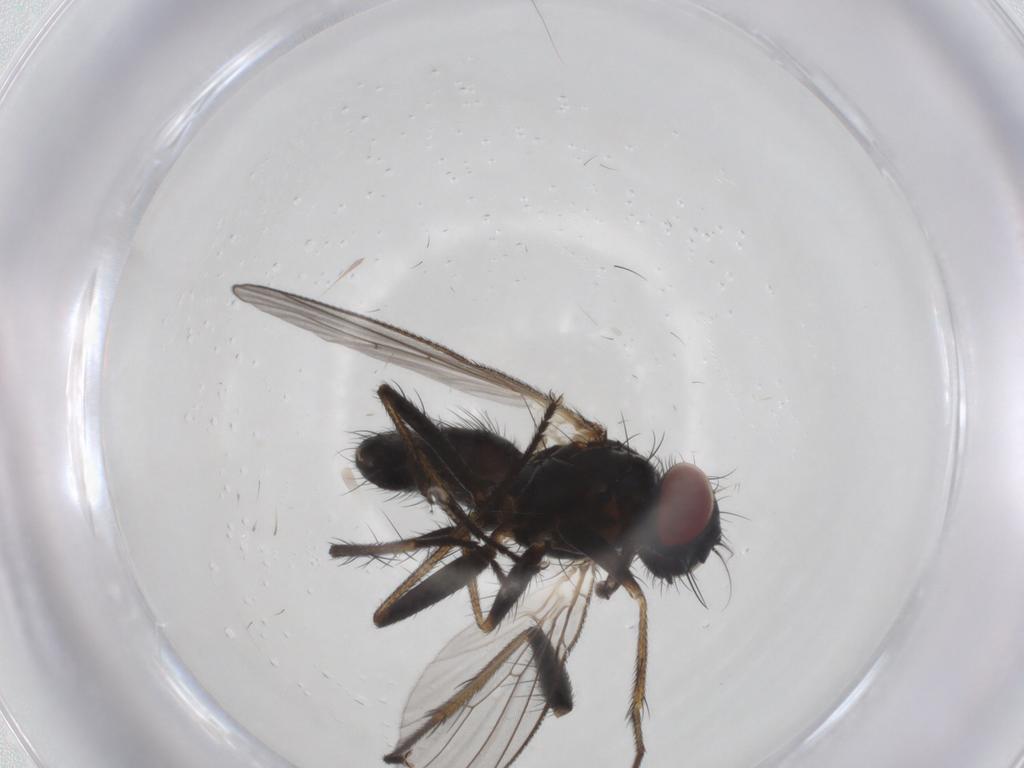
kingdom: Animalia
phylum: Arthropoda
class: Insecta
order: Diptera
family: Cecidomyiidae
